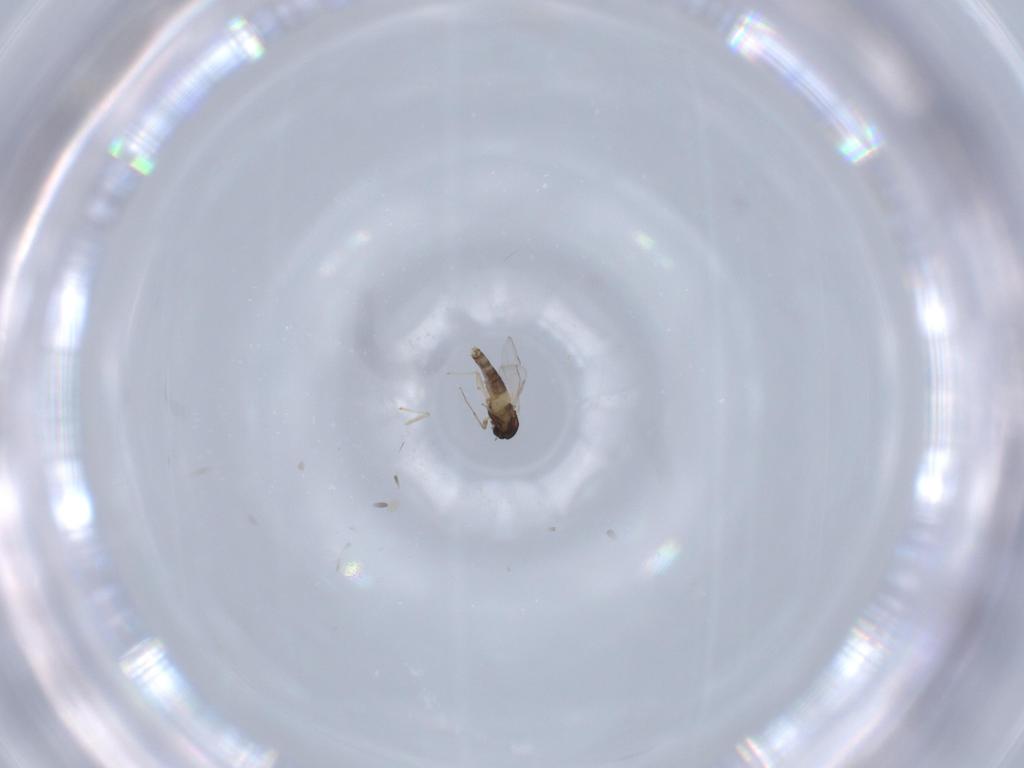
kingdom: Animalia
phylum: Arthropoda
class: Insecta
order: Diptera
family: Chironomidae
